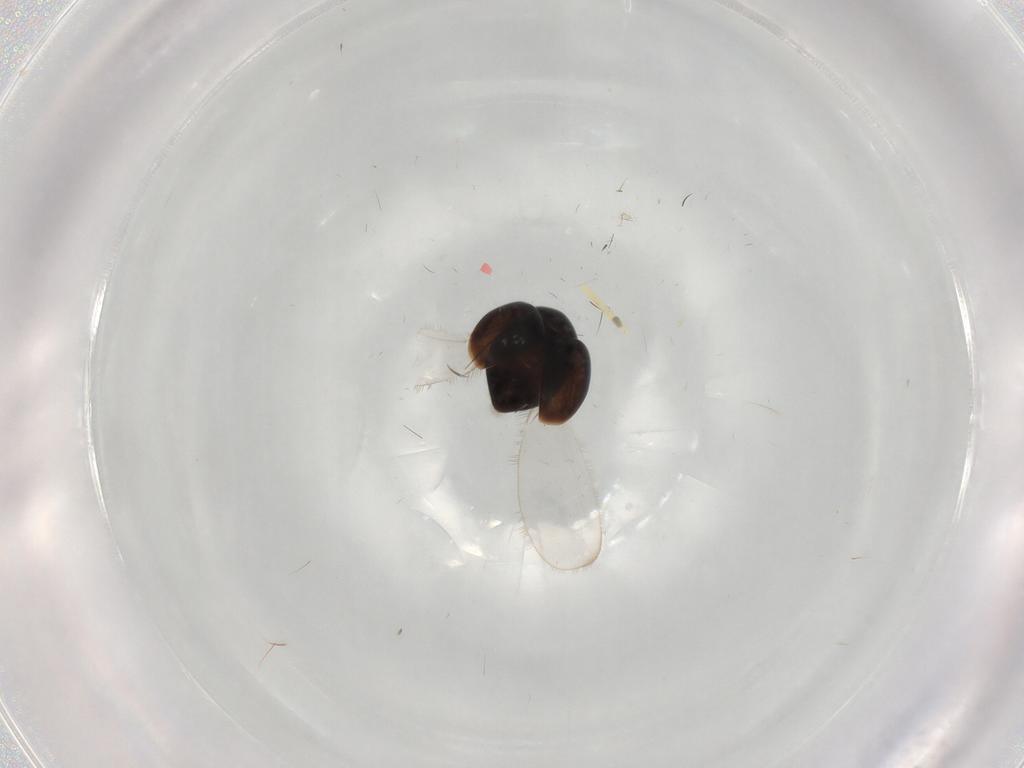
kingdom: Animalia
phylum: Arthropoda
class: Insecta
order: Coleoptera
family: Corylophidae
